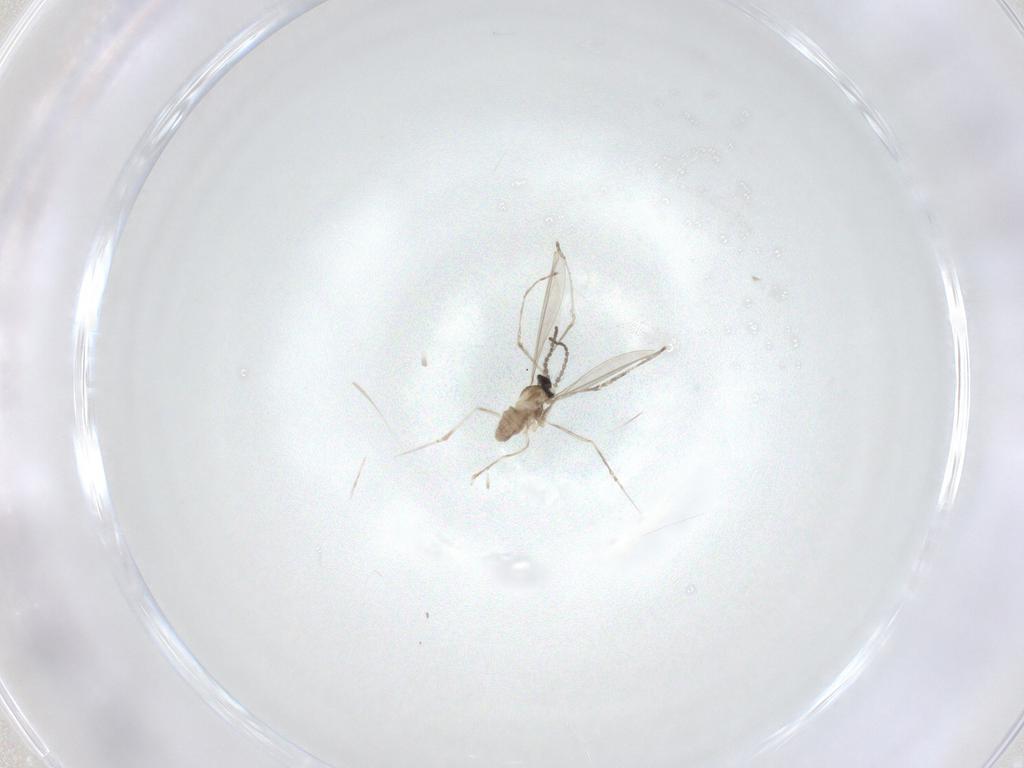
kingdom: Animalia
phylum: Arthropoda
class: Insecta
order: Diptera
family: Cecidomyiidae
